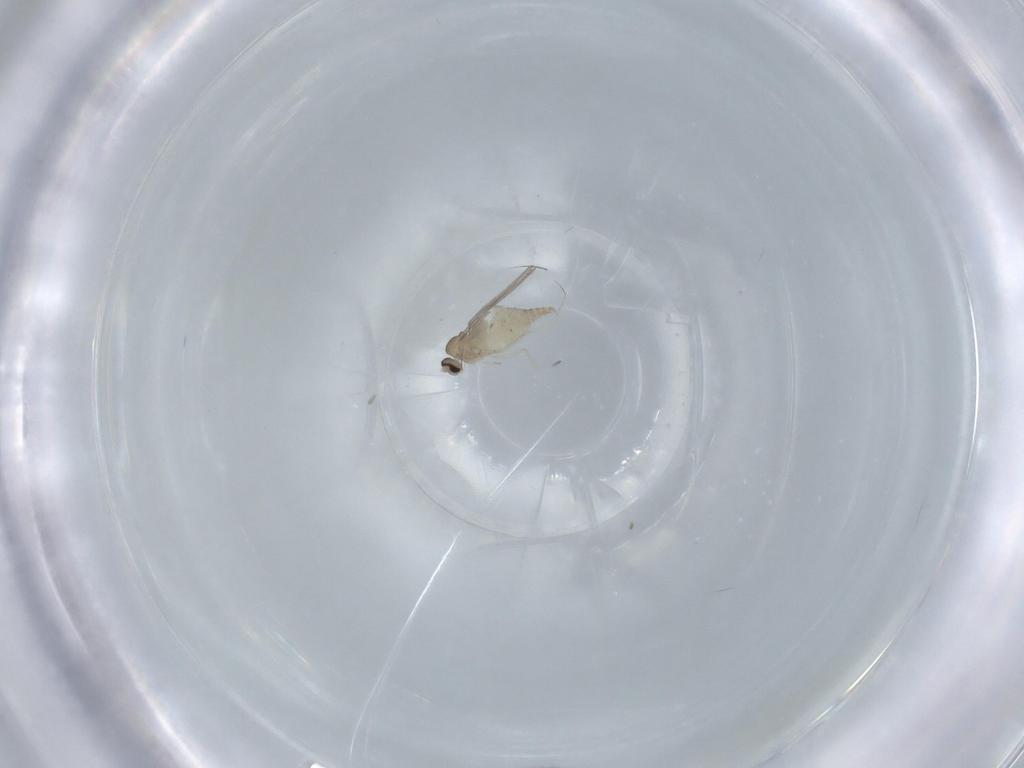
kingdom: Animalia
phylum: Arthropoda
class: Insecta
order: Diptera
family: Cecidomyiidae
